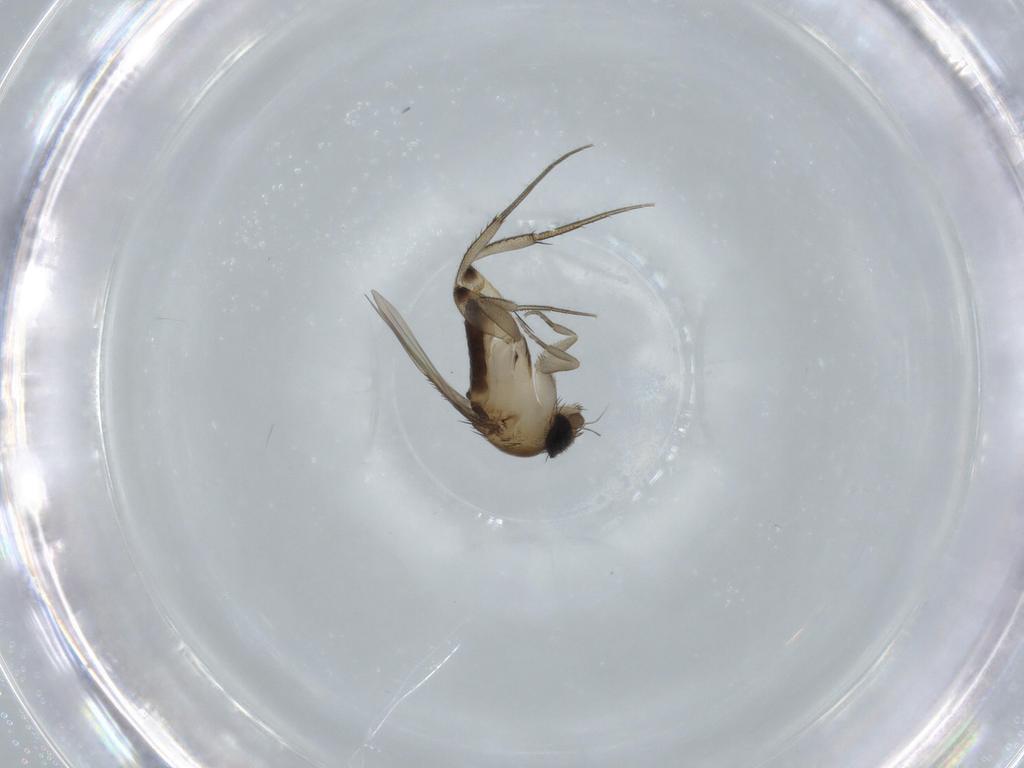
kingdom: Animalia
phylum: Arthropoda
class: Insecta
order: Diptera
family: Phoridae
